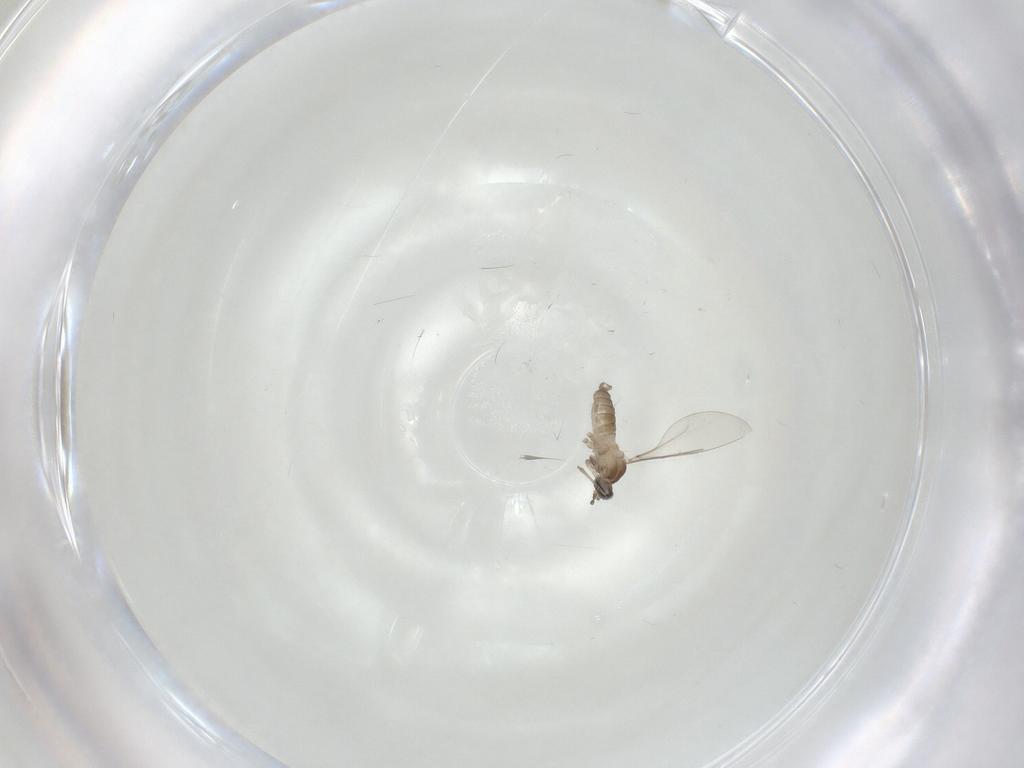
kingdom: Animalia
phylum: Arthropoda
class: Insecta
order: Diptera
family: Cecidomyiidae
